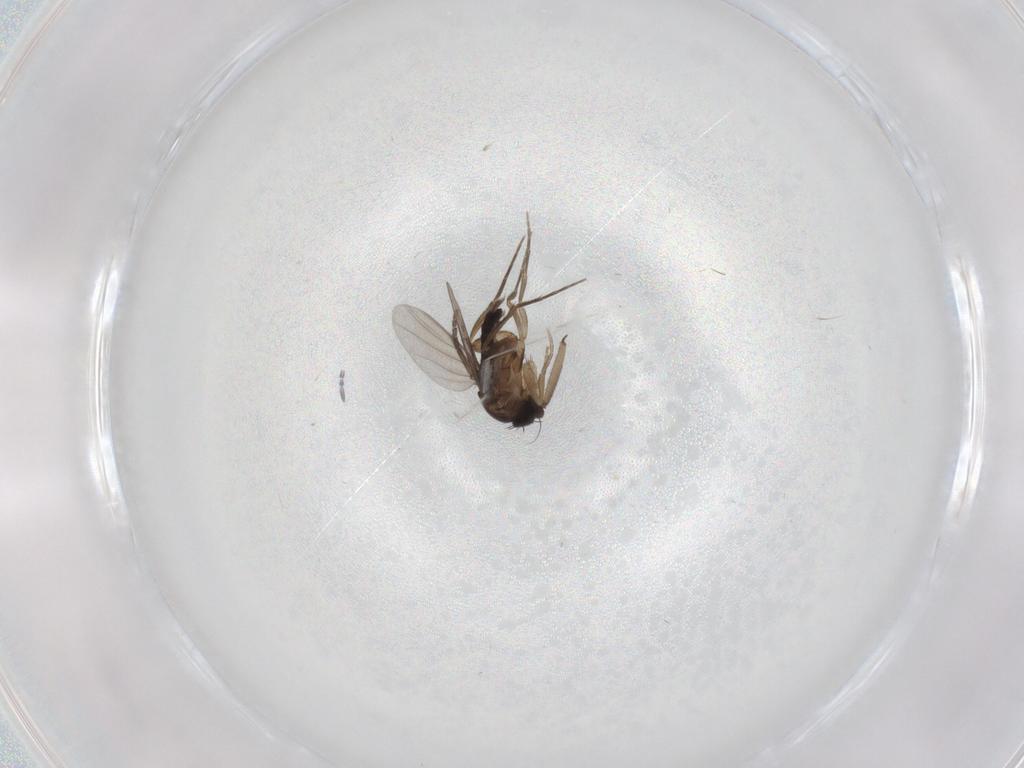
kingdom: Animalia
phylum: Arthropoda
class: Insecta
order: Diptera
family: Phoridae
